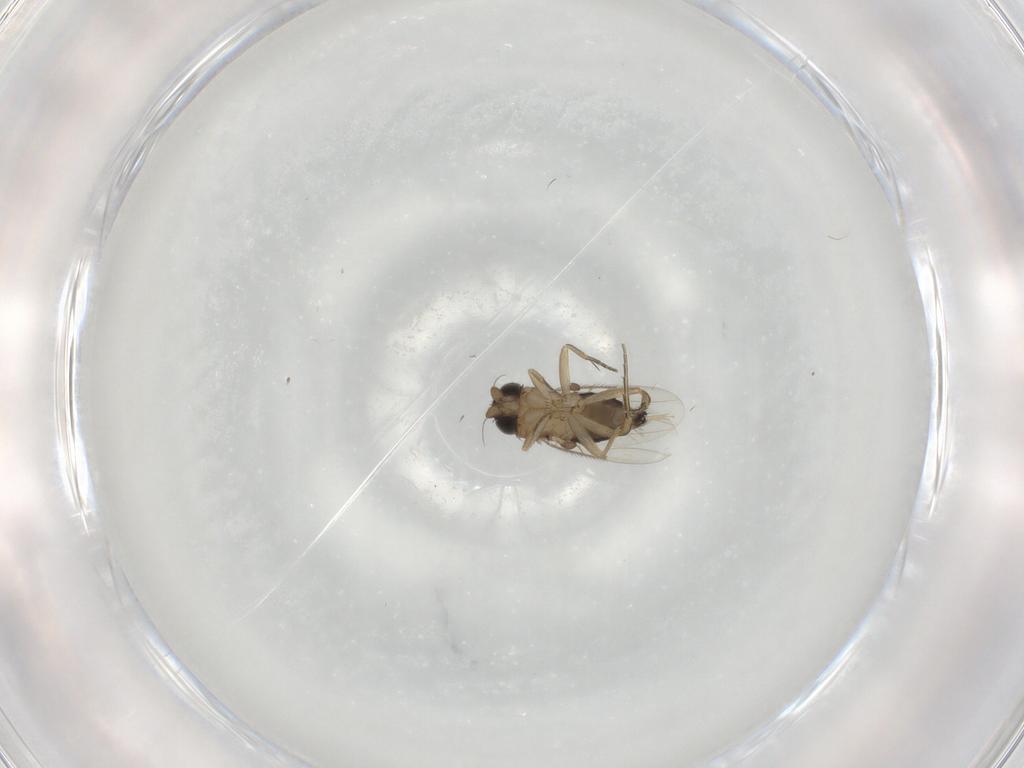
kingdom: Animalia
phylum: Arthropoda
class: Insecta
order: Diptera
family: Phoridae
